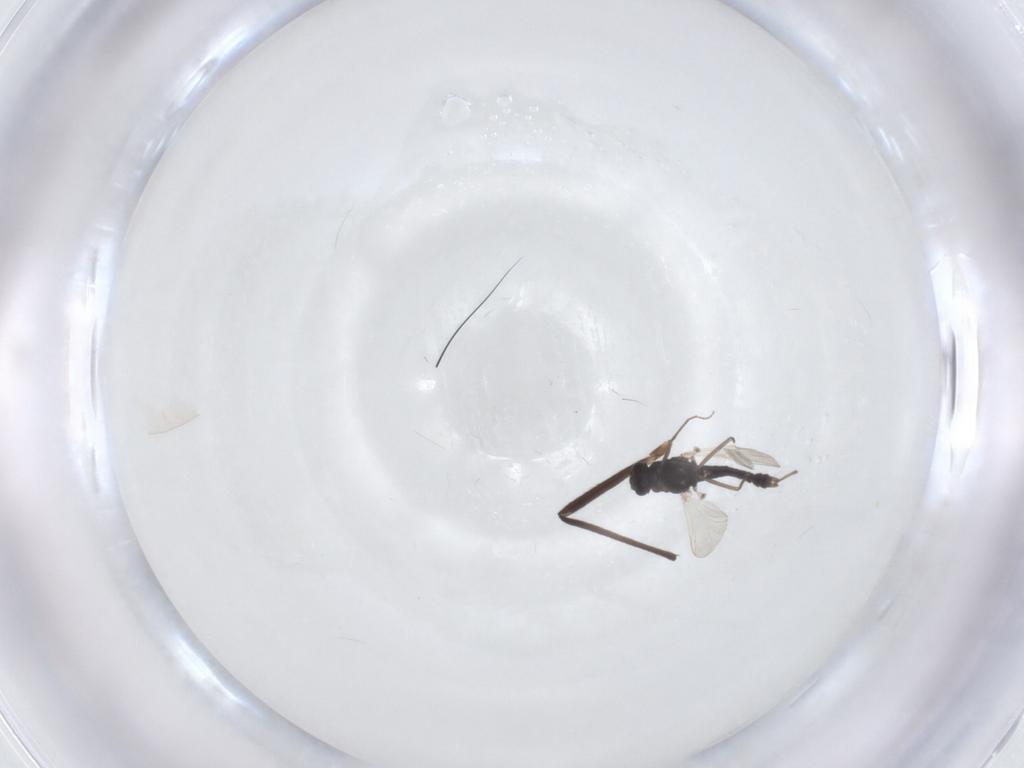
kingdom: Animalia
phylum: Arthropoda
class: Insecta
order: Diptera
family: Chironomidae
